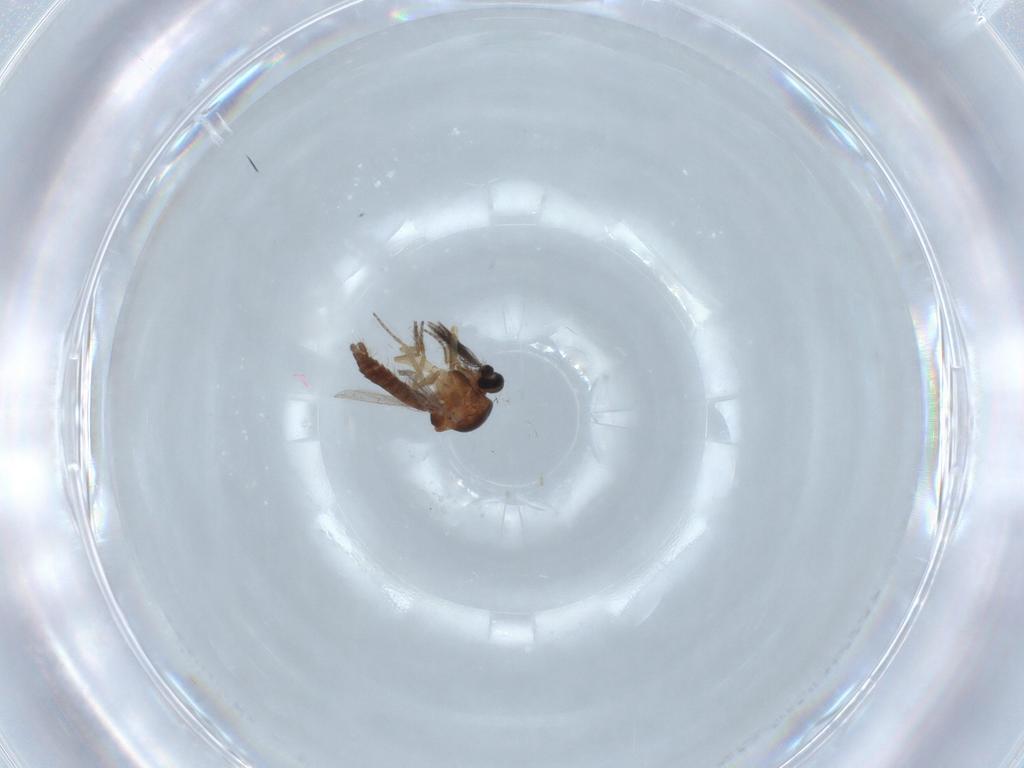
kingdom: Animalia
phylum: Arthropoda
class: Insecta
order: Diptera
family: Ceratopogonidae
